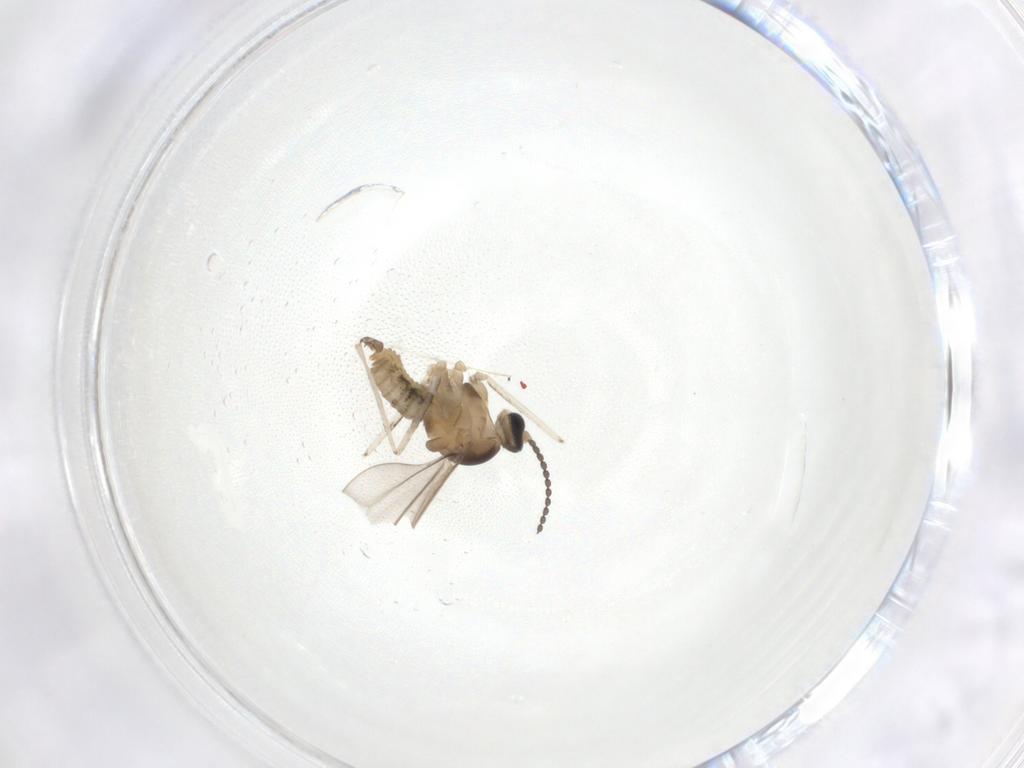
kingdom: Animalia
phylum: Arthropoda
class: Insecta
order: Diptera
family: Cecidomyiidae
